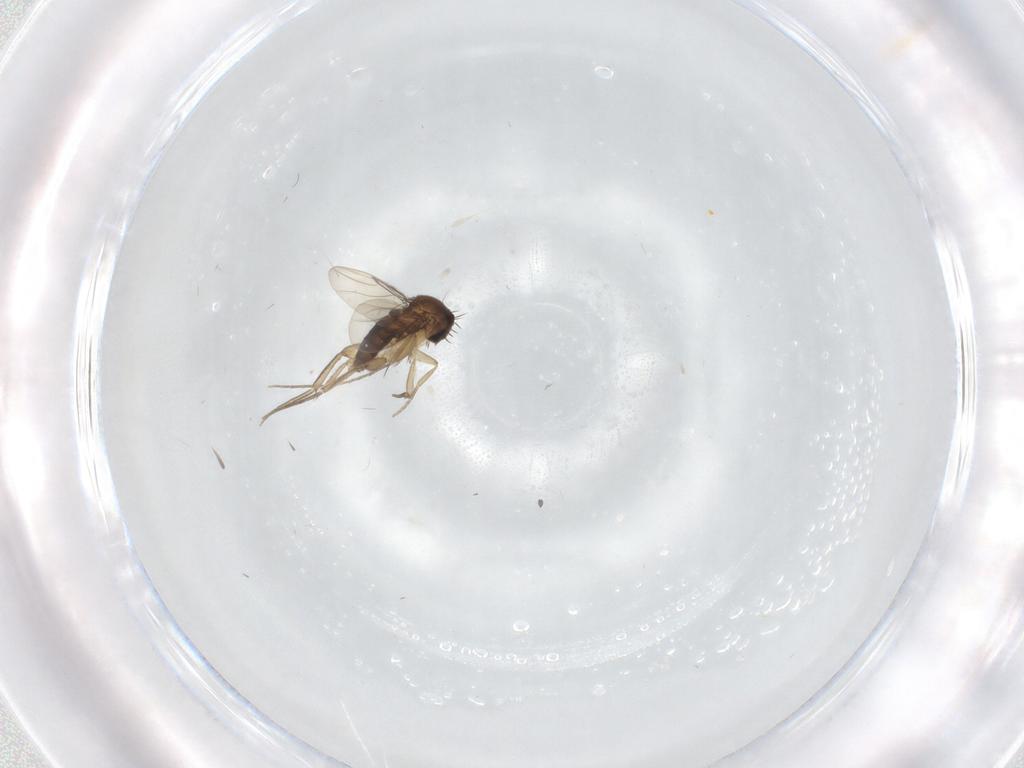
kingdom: Animalia
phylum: Arthropoda
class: Insecta
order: Diptera
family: Phoridae
